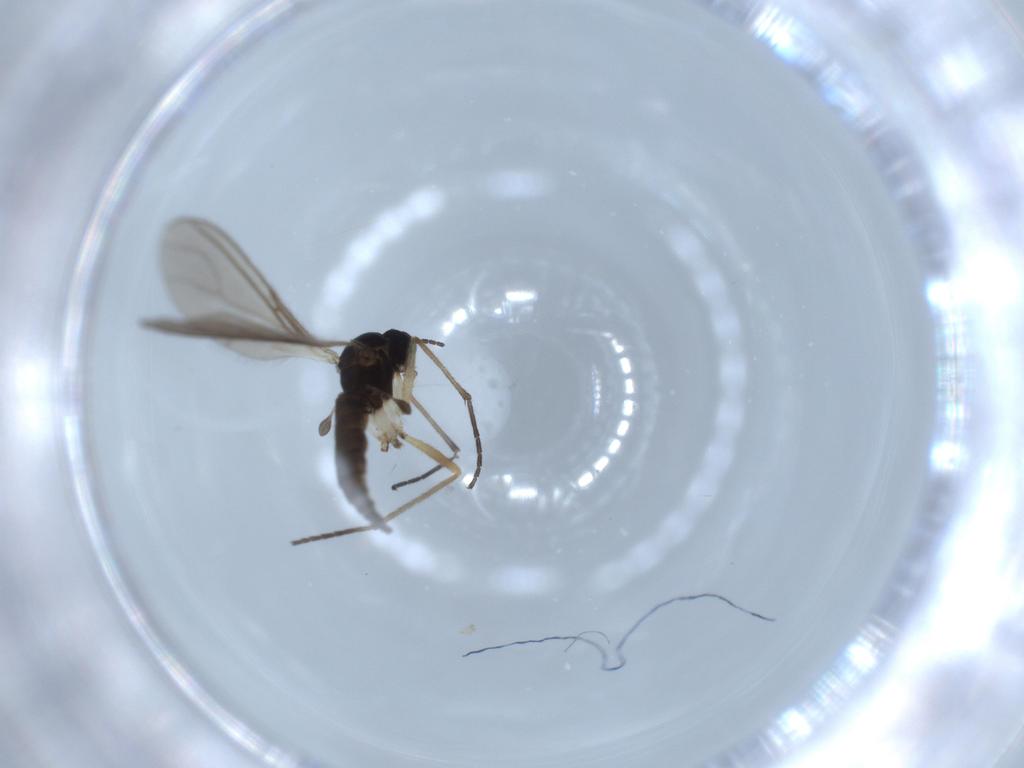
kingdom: Animalia
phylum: Arthropoda
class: Insecta
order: Diptera
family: Sciaridae
